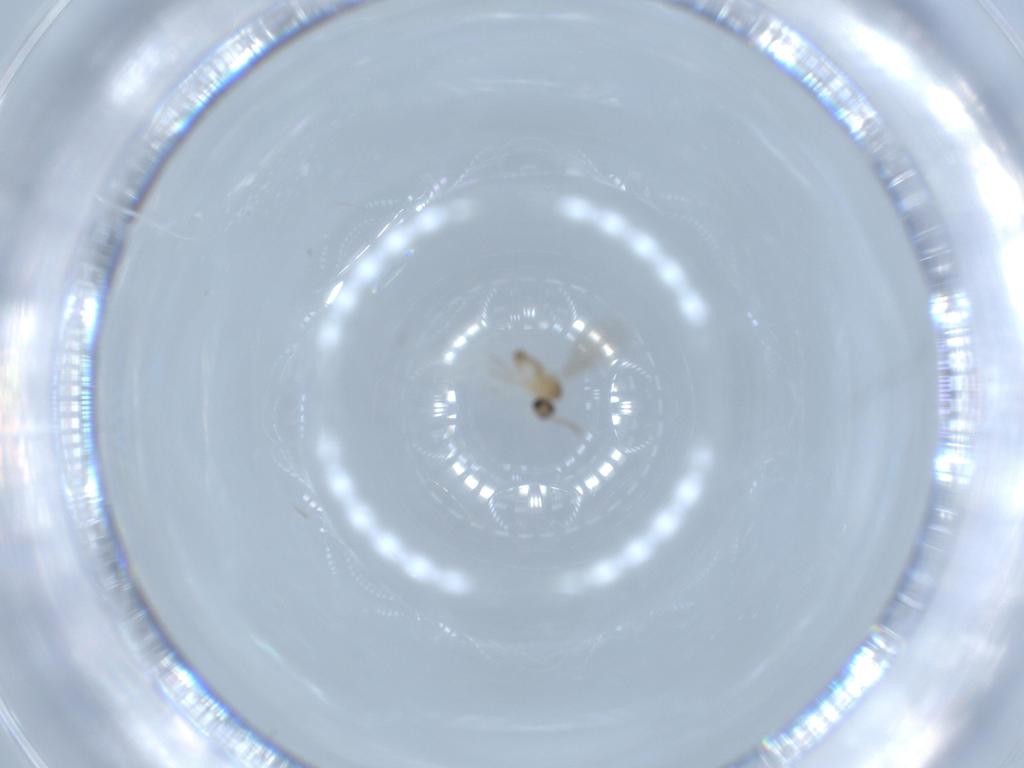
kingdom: Animalia
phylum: Arthropoda
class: Insecta
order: Diptera
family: Cecidomyiidae
